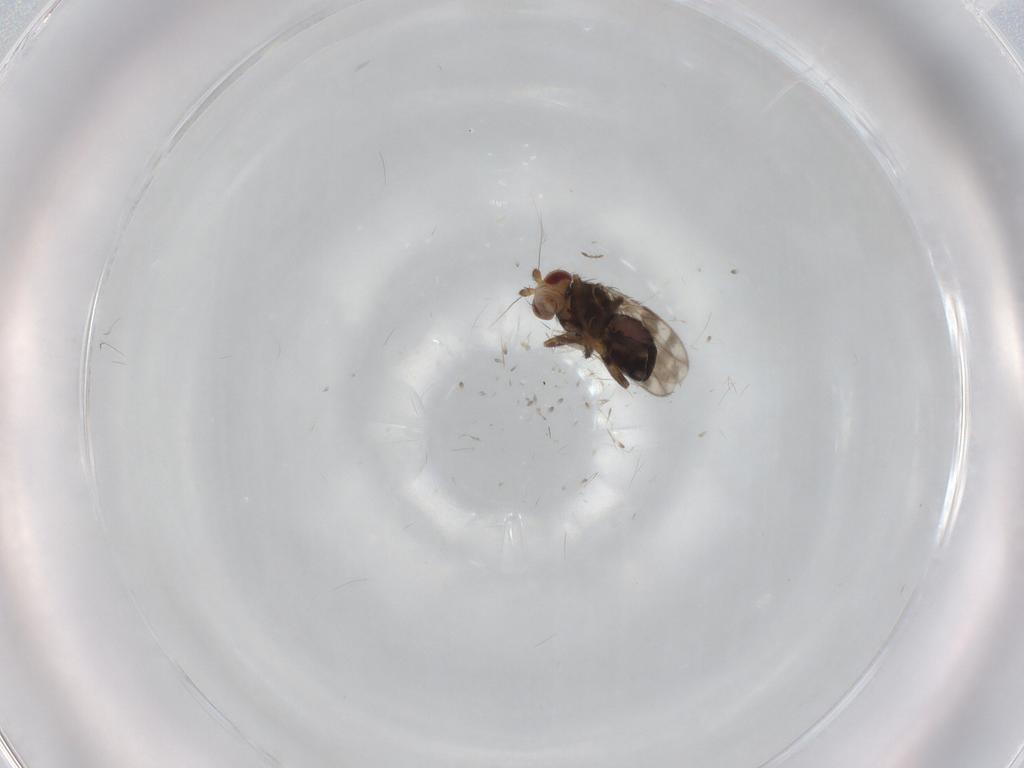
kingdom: Animalia
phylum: Arthropoda
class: Insecta
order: Diptera
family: Sphaeroceridae
